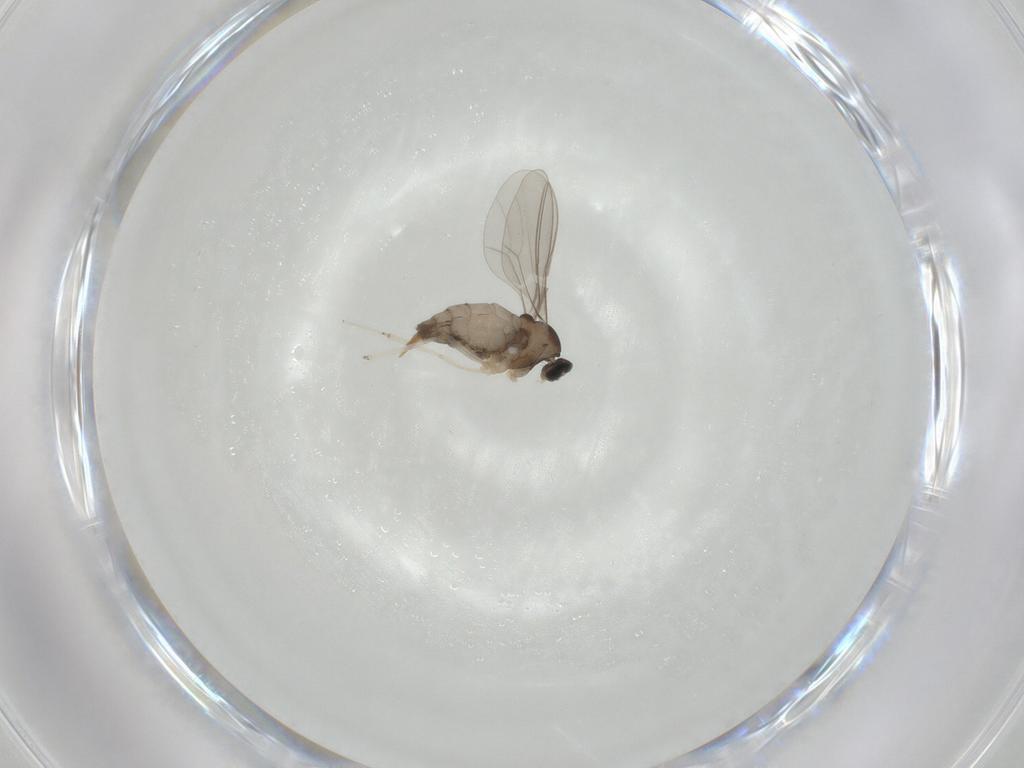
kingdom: Animalia
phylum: Arthropoda
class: Insecta
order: Diptera
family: Cecidomyiidae
